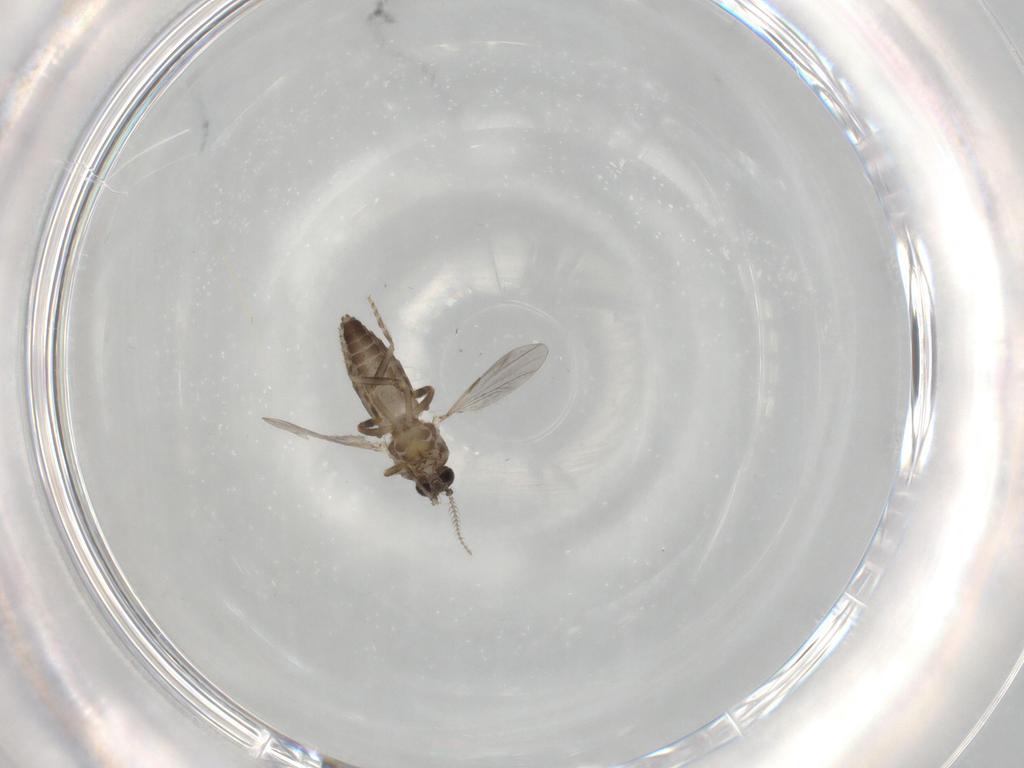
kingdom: Animalia
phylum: Arthropoda
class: Insecta
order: Diptera
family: Ceratopogonidae
